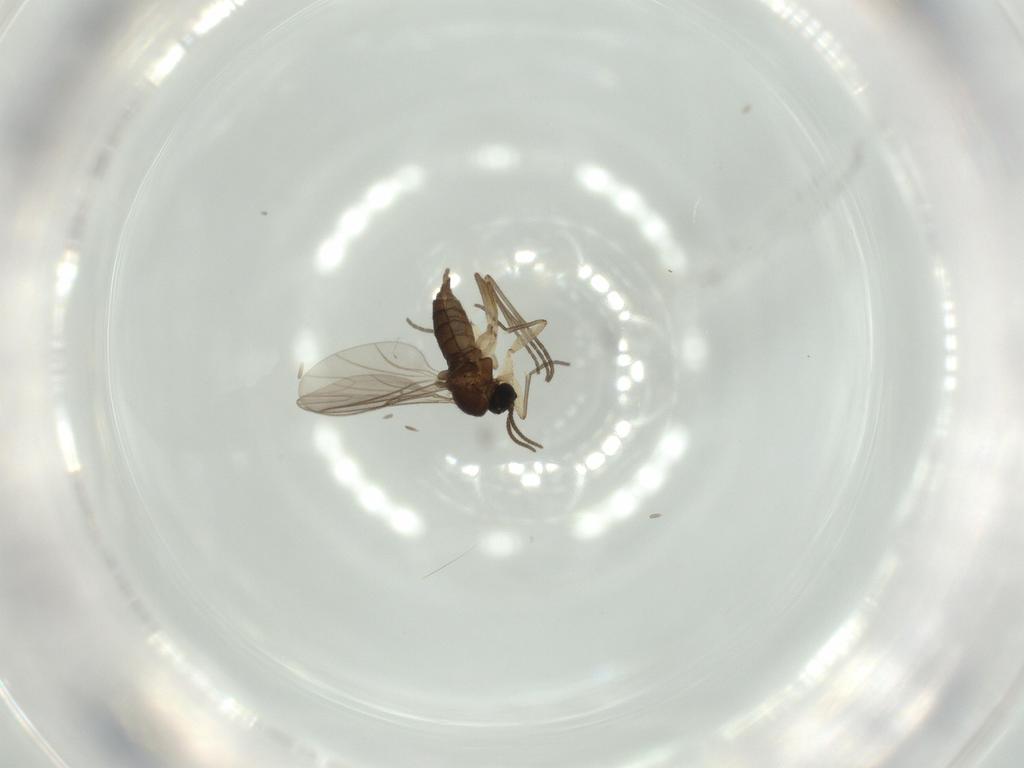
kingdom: Animalia
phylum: Arthropoda
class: Insecta
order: Diptera
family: Sciaridae
